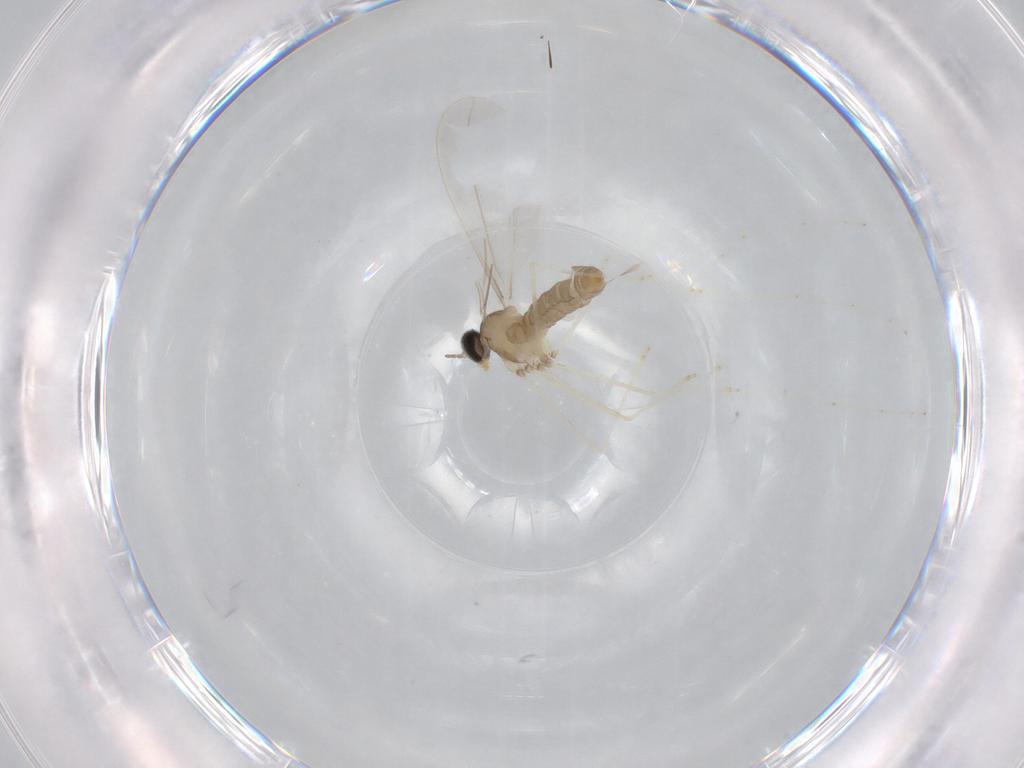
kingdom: Animalia
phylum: Arthropoda
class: Insecta
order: Diptera
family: Cecidomyiidae
